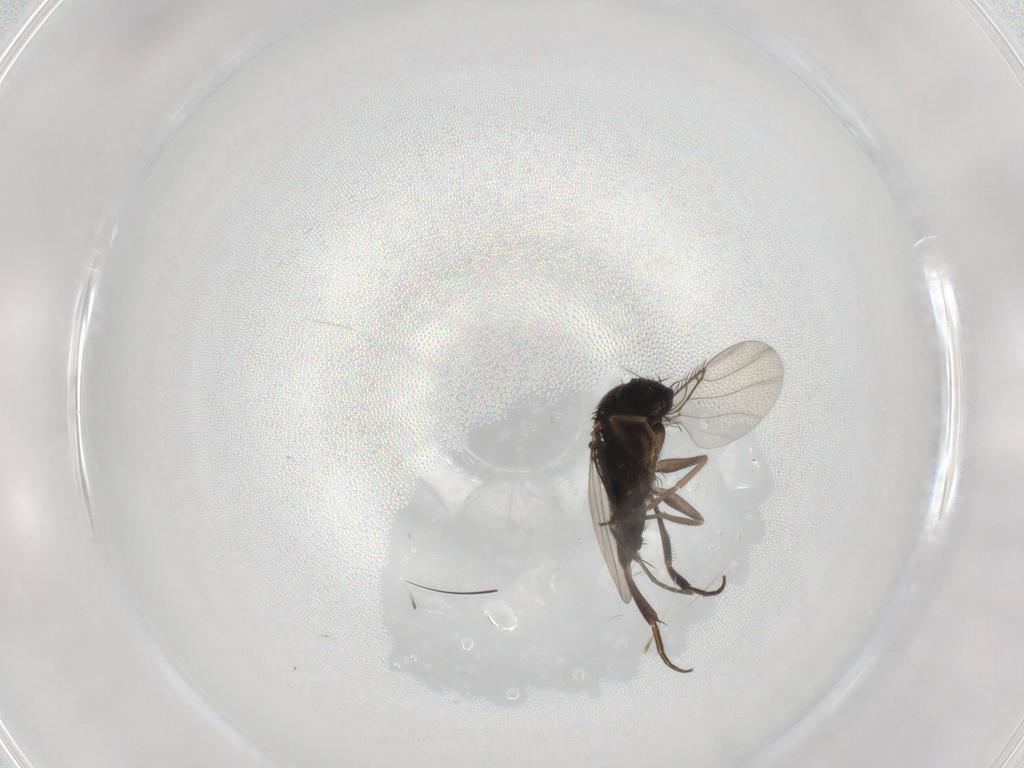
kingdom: Animalia
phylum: Arthropoda
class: Insecta
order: Diptera
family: Phoridae
